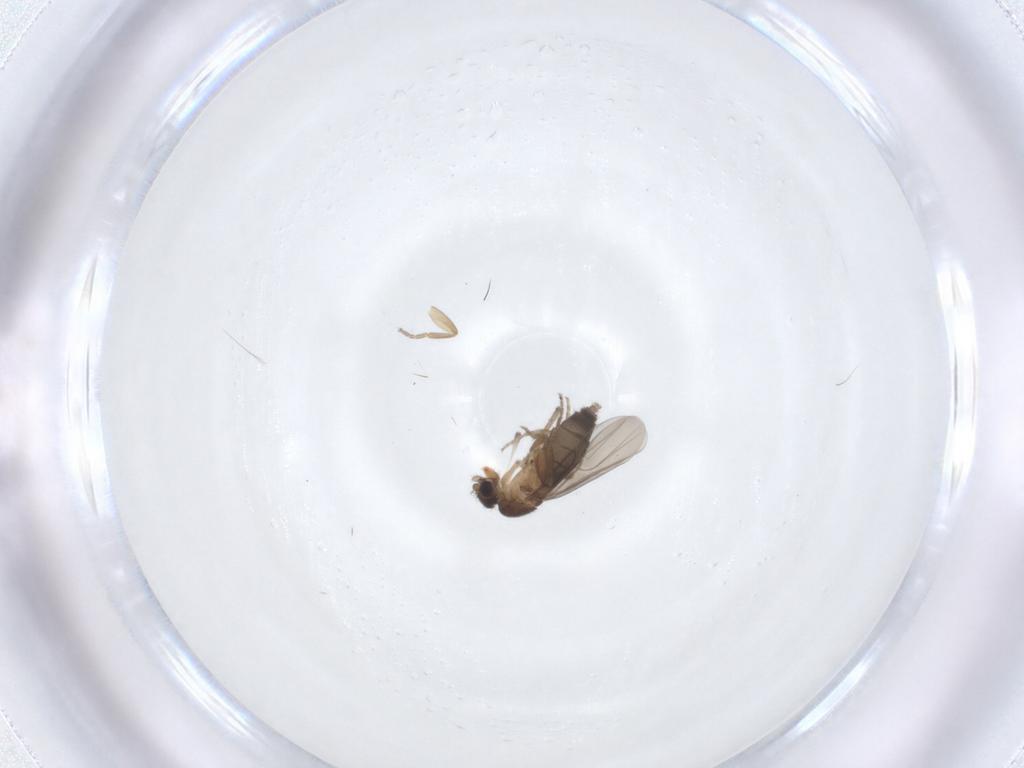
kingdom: Animalia
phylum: Arthropoda
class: Insecta
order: Diptera
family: Phoridae
